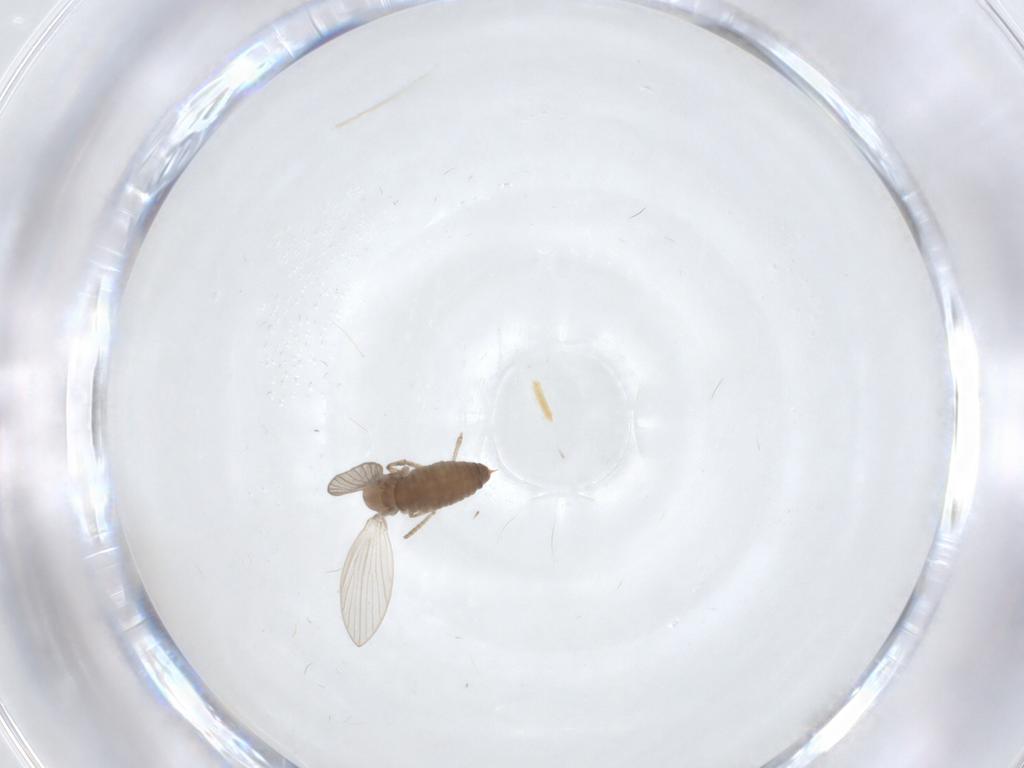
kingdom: Animalia
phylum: Arthropoda
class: Insecta
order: Diptera
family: Psychodidae
